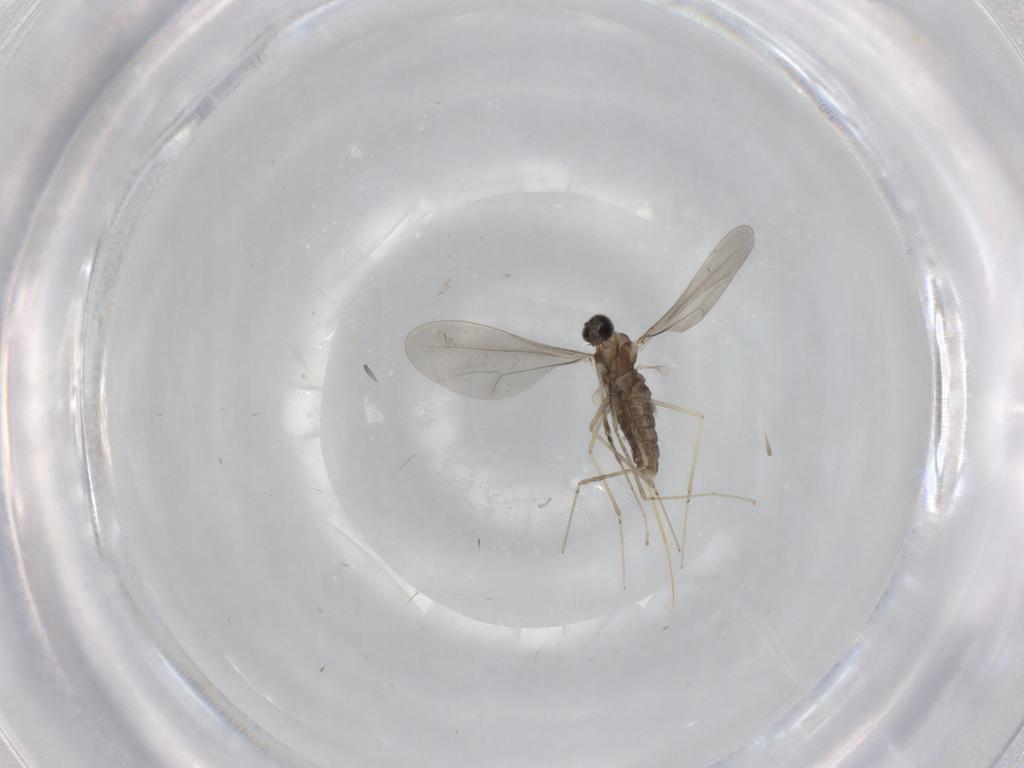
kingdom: Animalia
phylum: Arthropoda
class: Insecta
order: Diptera
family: Cecidomyiidae
